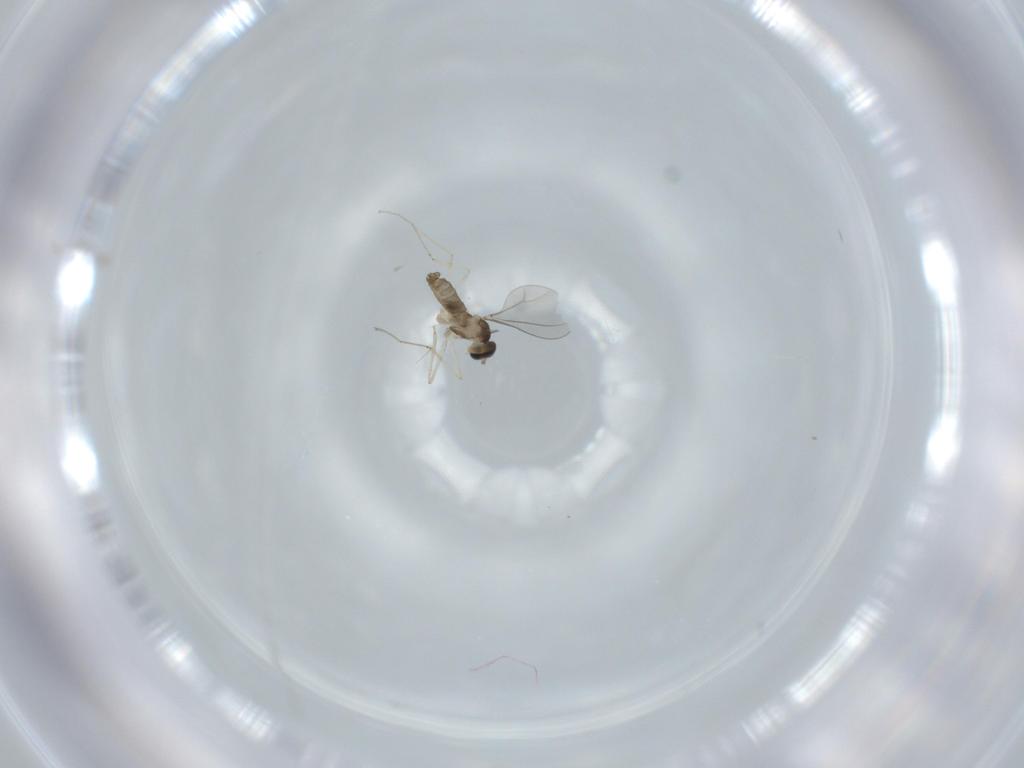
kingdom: Animalia
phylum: Arthropoda
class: Insecta
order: Diptera
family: Cecidomyiidae
